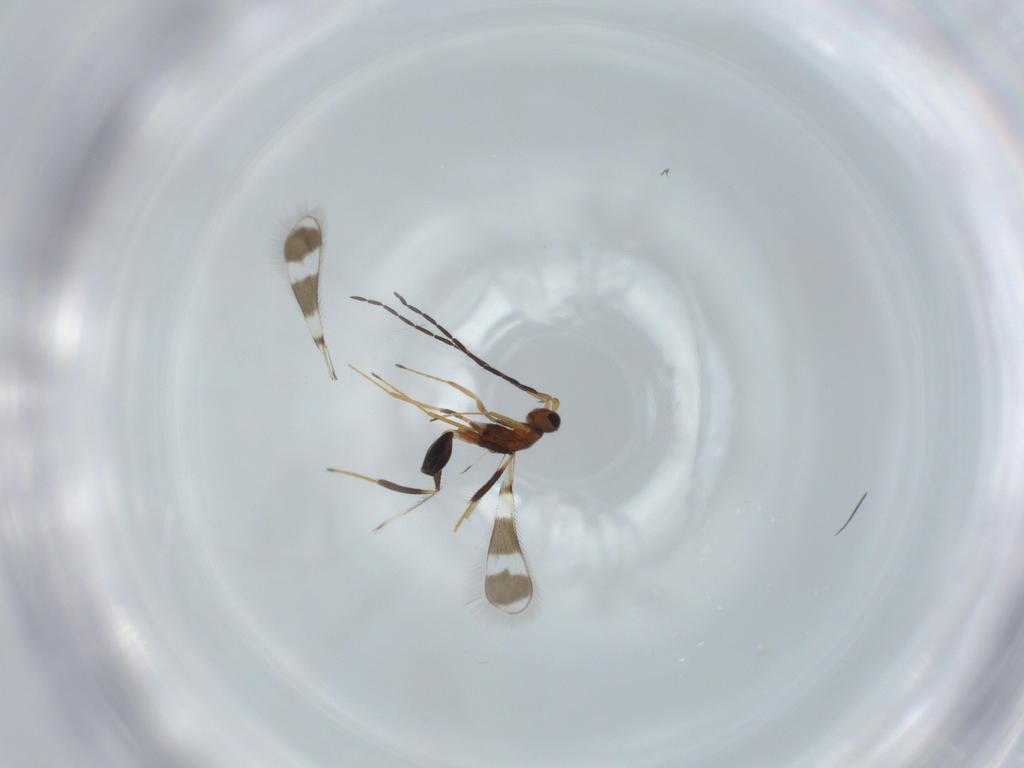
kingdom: Animalia
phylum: Arthropoda
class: Insecta
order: Hymenoptera
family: Mymaridae
